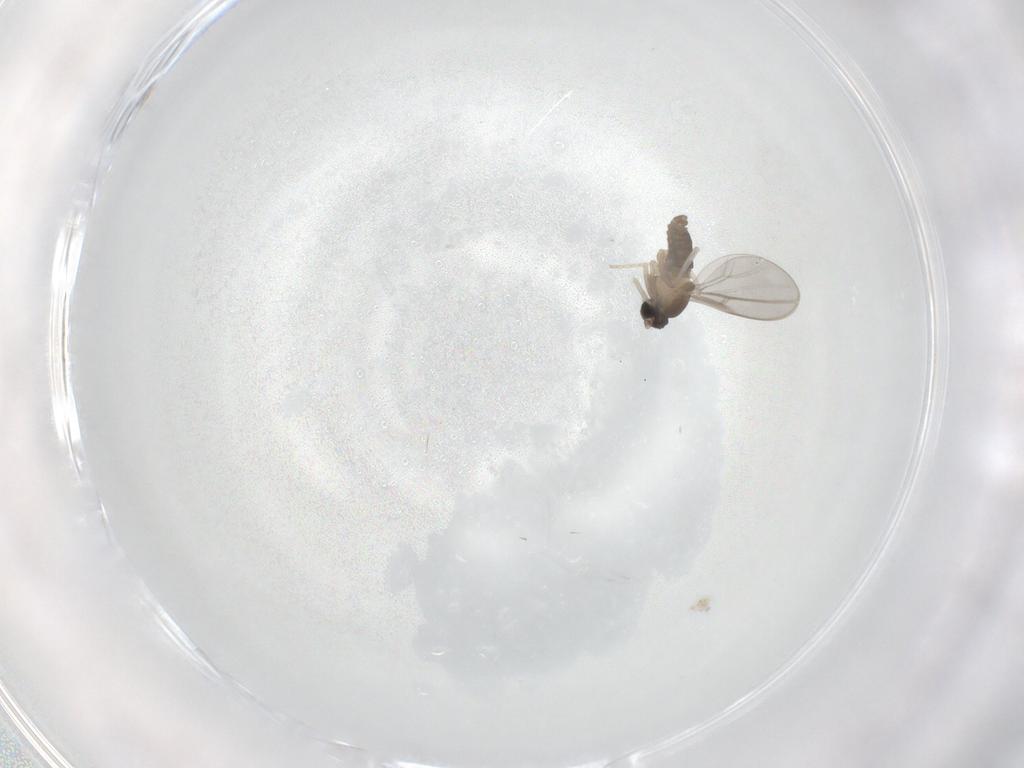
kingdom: Animalia
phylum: Arthropoda
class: Insecta
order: Diptera
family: Cecidomyiidae
